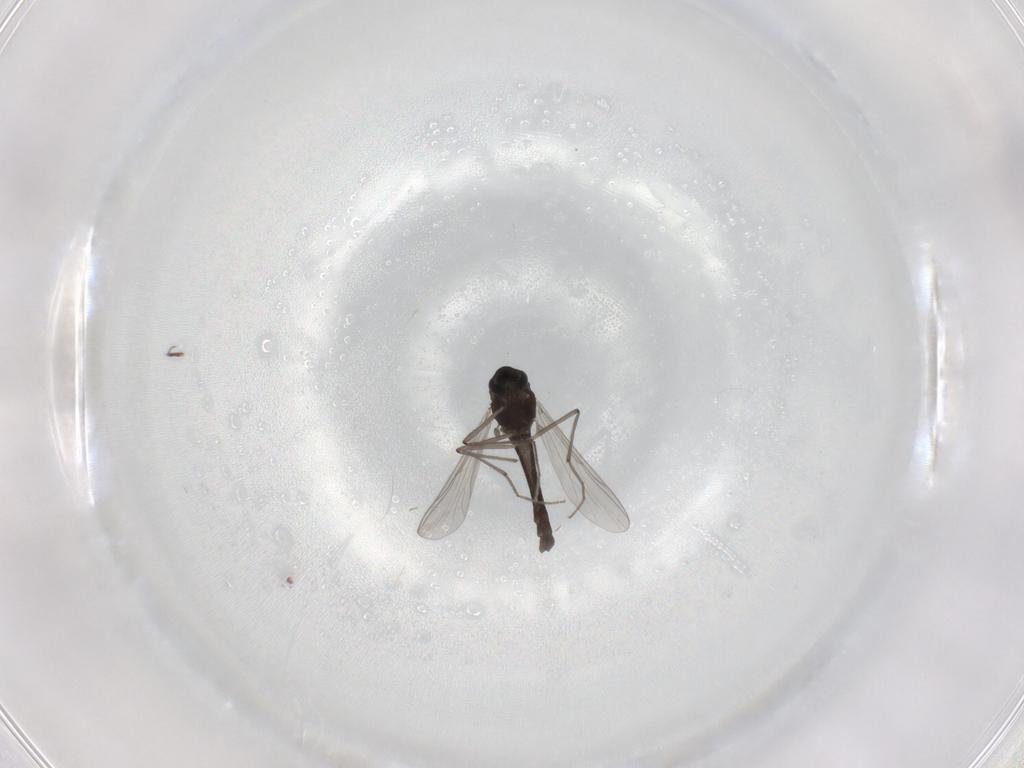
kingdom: Animalia
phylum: Arthropoda
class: Insecta
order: Diptera
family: Chironomidae
